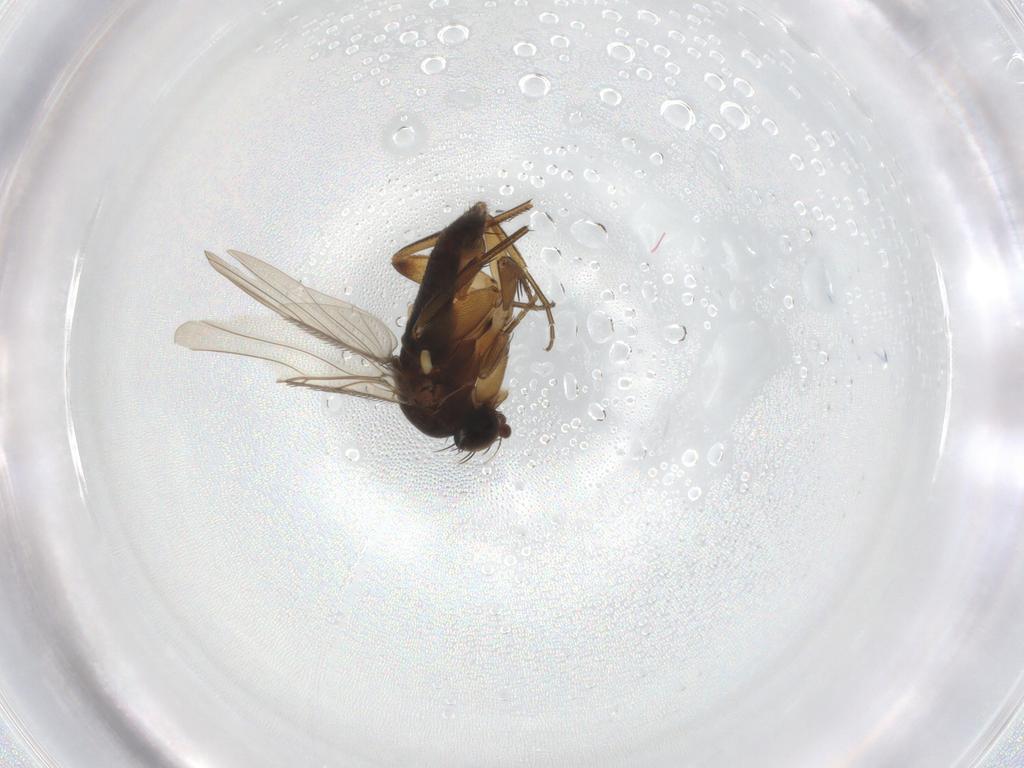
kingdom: Animalia
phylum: Arthropoda
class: Insecta
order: Diptera
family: Phoridae
